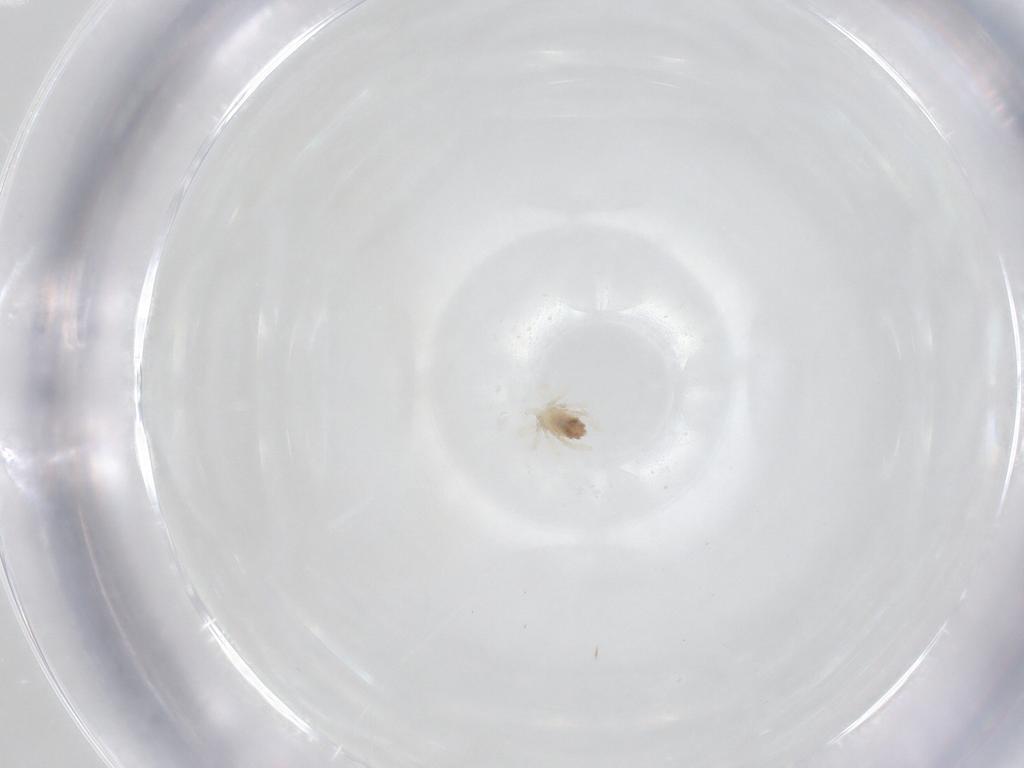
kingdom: Animalia
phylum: Arthropoda
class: Arachnida
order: Trombidiformes
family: Anystidae
